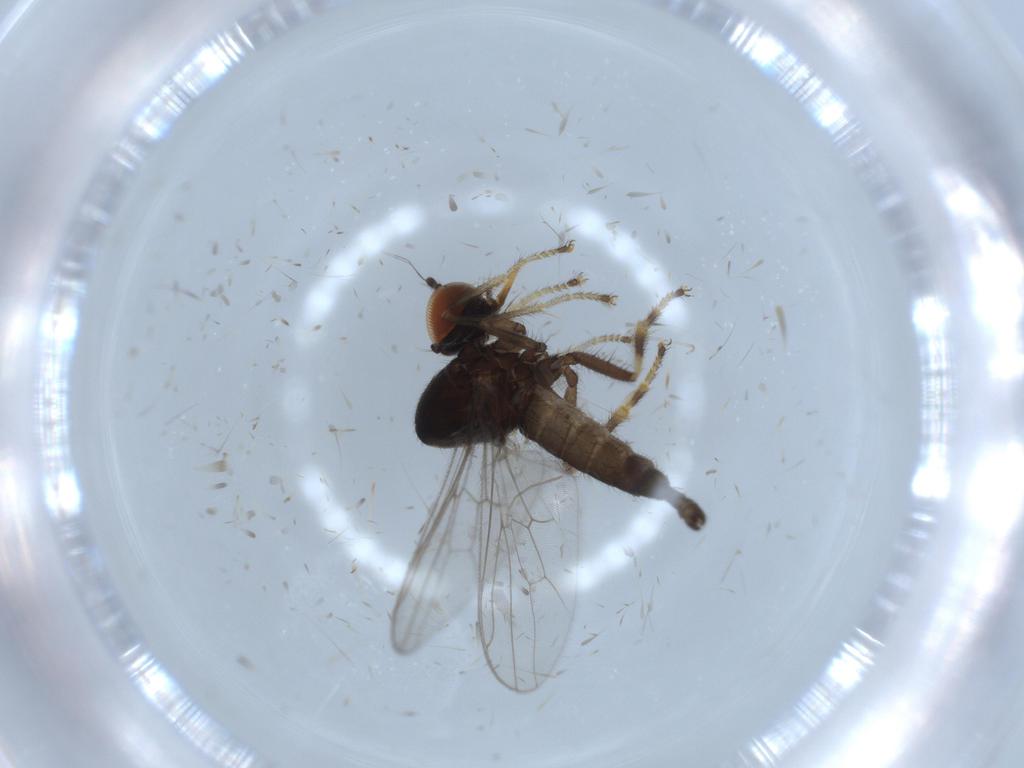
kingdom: Animalia
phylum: Arthropoda
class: Insecta
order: Diptera
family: Hybotidae
